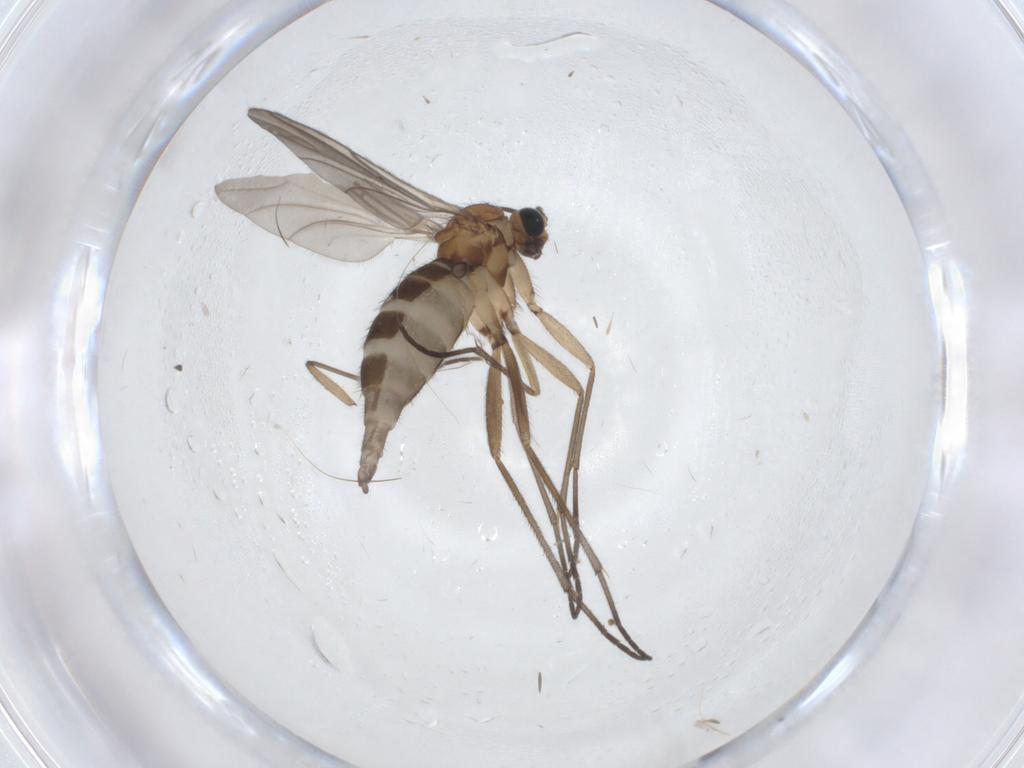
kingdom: Animalia
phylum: Arthropoda
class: Insecta
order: Diptera
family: Sciaridae
